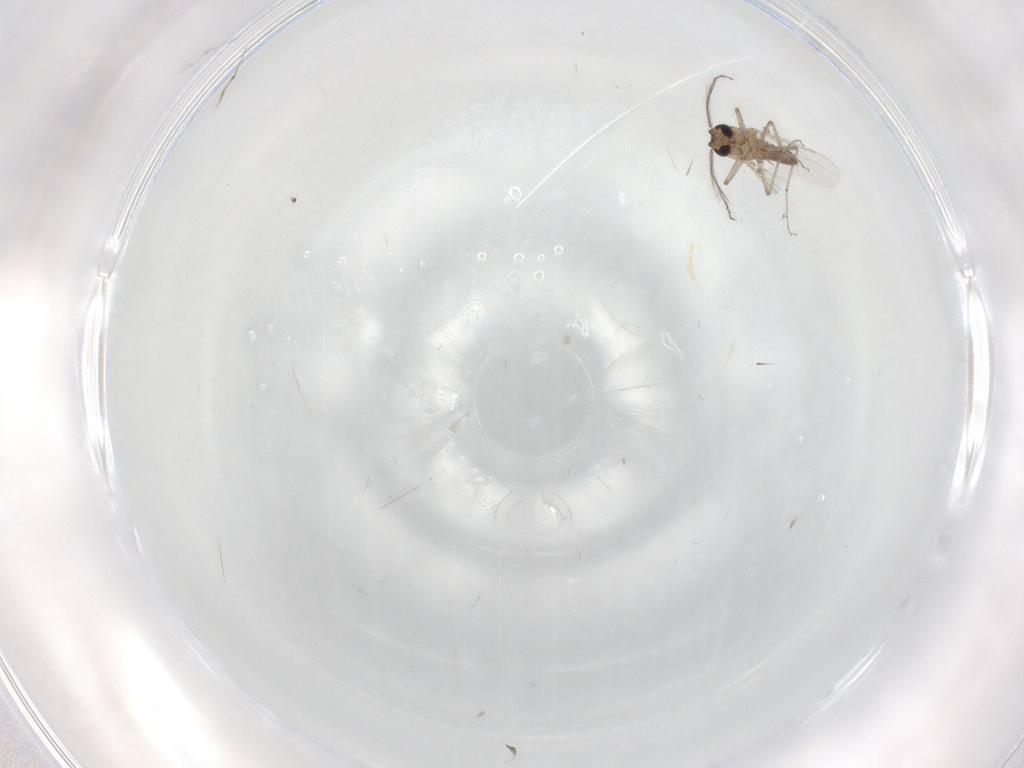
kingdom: Animalia
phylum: Arthropoda
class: Insecta
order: Diptera
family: Ceratopogonidae
